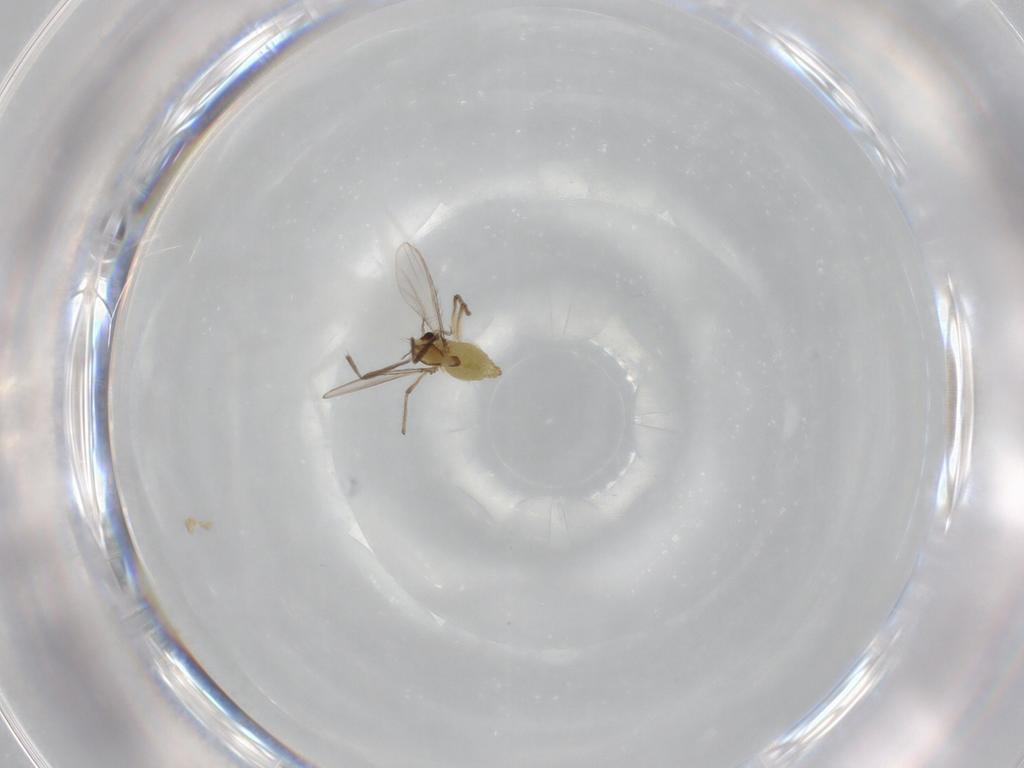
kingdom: Animalia
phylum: Arthropoda
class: Insecta
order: Diptera
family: Chironomidae
